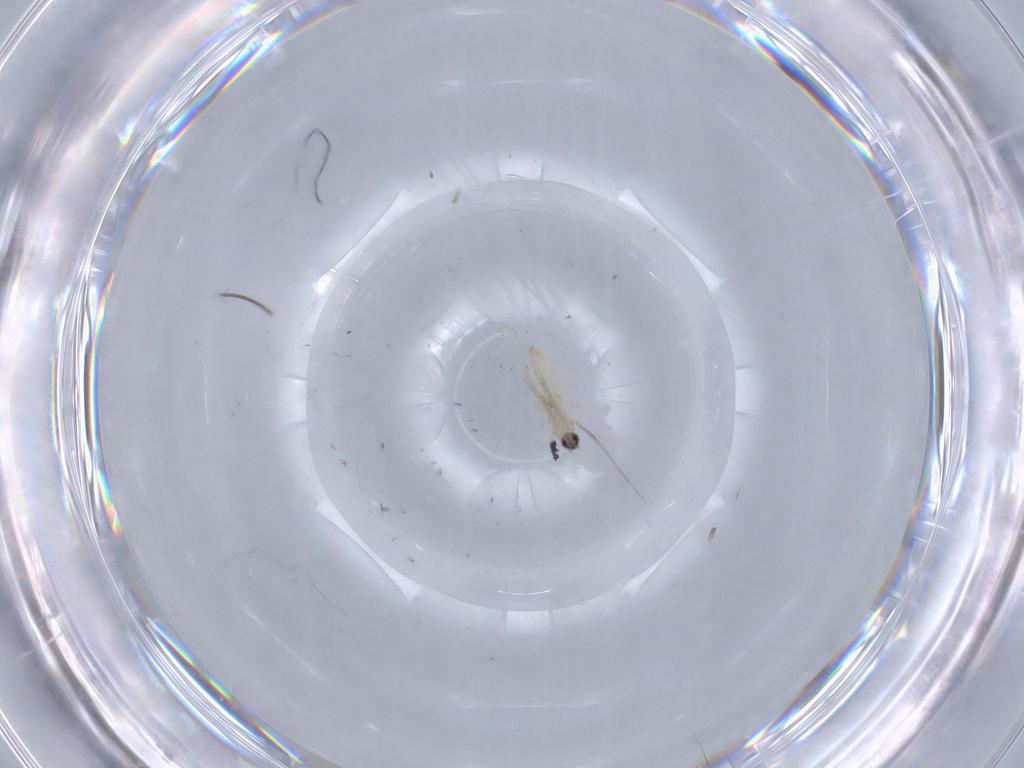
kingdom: Animalia
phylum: Arthropoda
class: Insecta
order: Diptera
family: Cecidomyiidae
